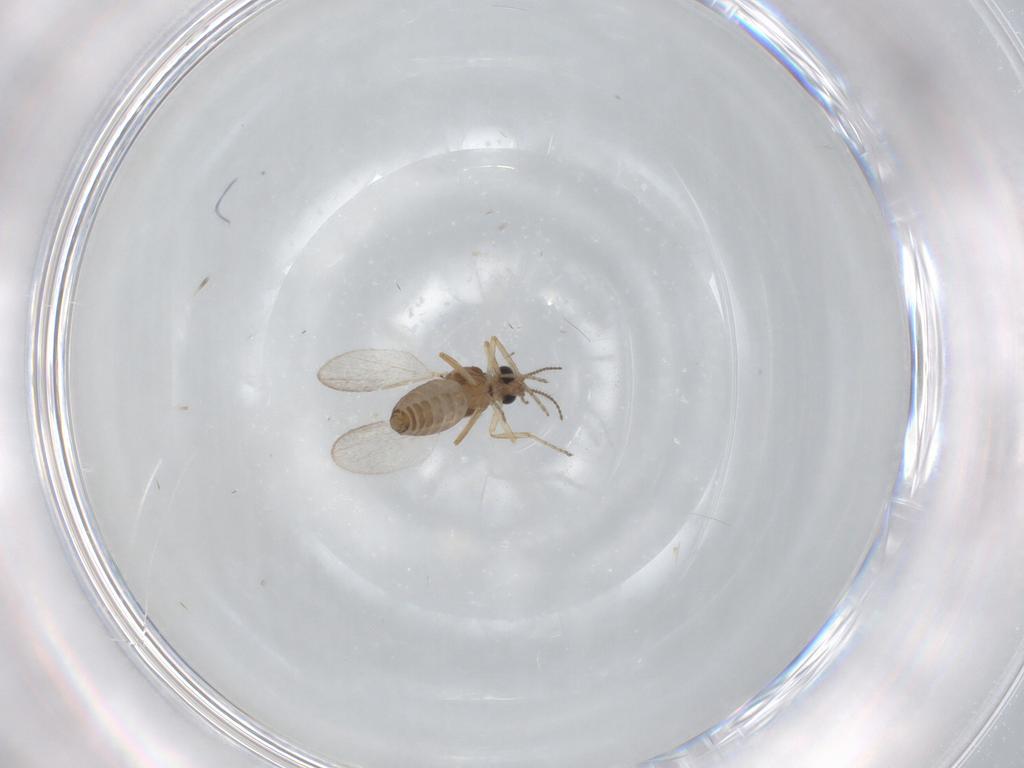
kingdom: Animalia
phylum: Arthropoda
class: Insecta
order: Diptera
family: Ceratopogonidae
